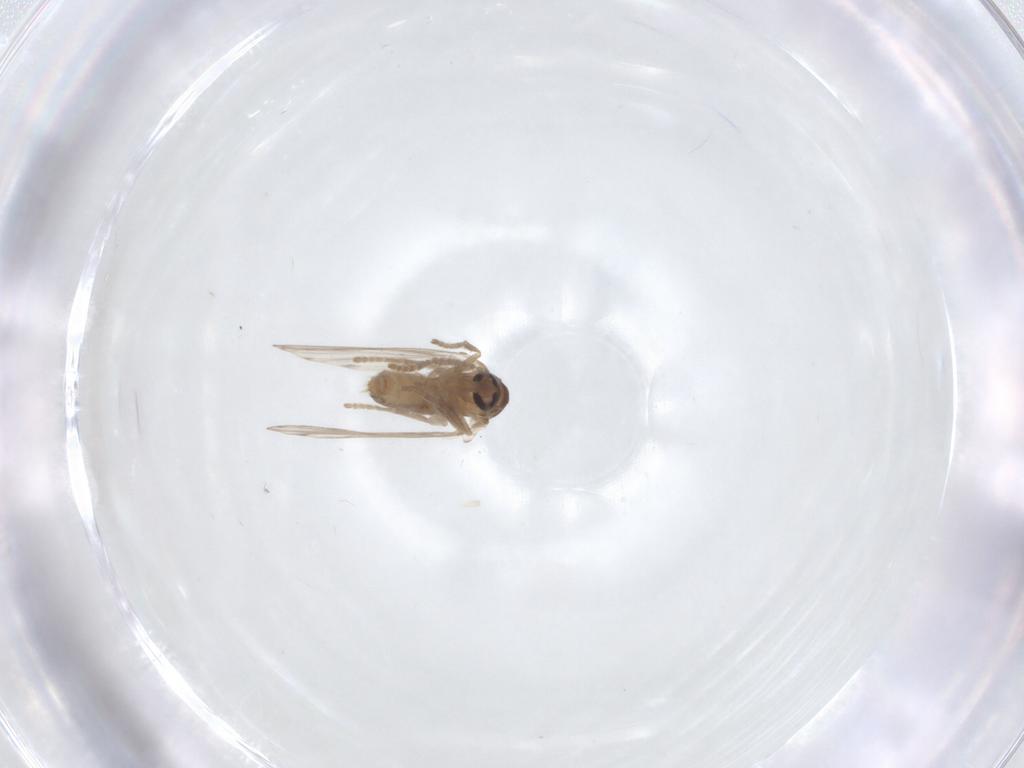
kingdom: Animalia
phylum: Arthropoda
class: Insecta
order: Diptera
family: Psychodidae
